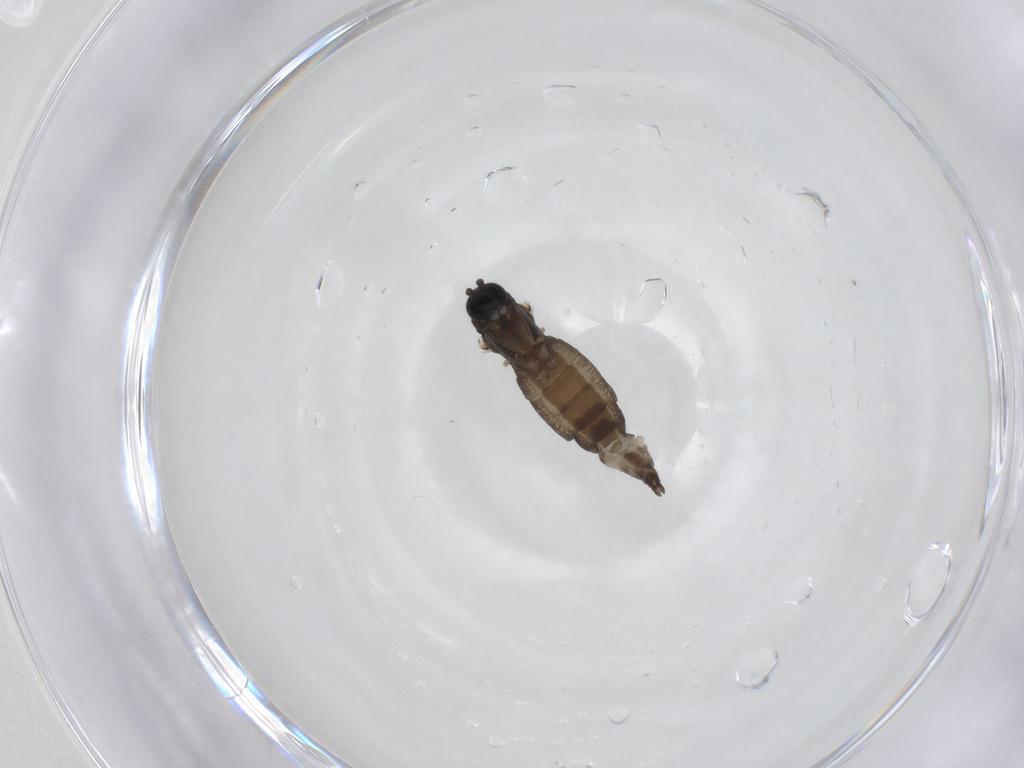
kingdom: Animalia
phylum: Arthropoda
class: Insecta
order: Diptera
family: Sciaridae
